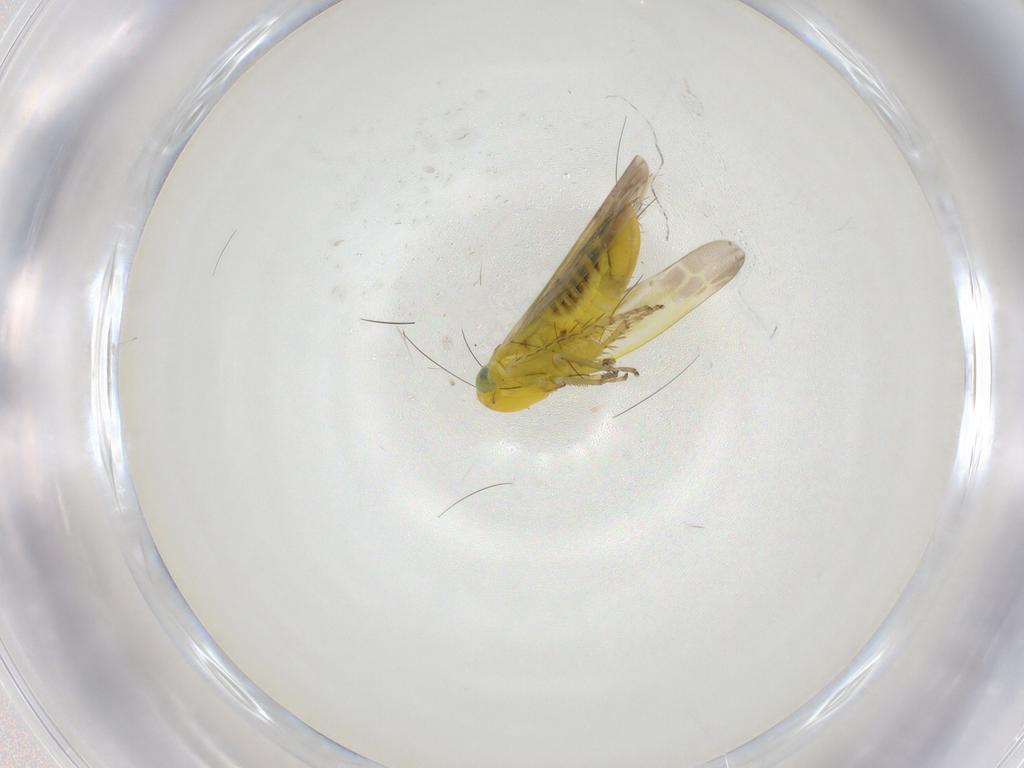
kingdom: Animalia
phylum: Arthropoda
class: Insecta
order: Hemiptera
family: Cicadellidae
